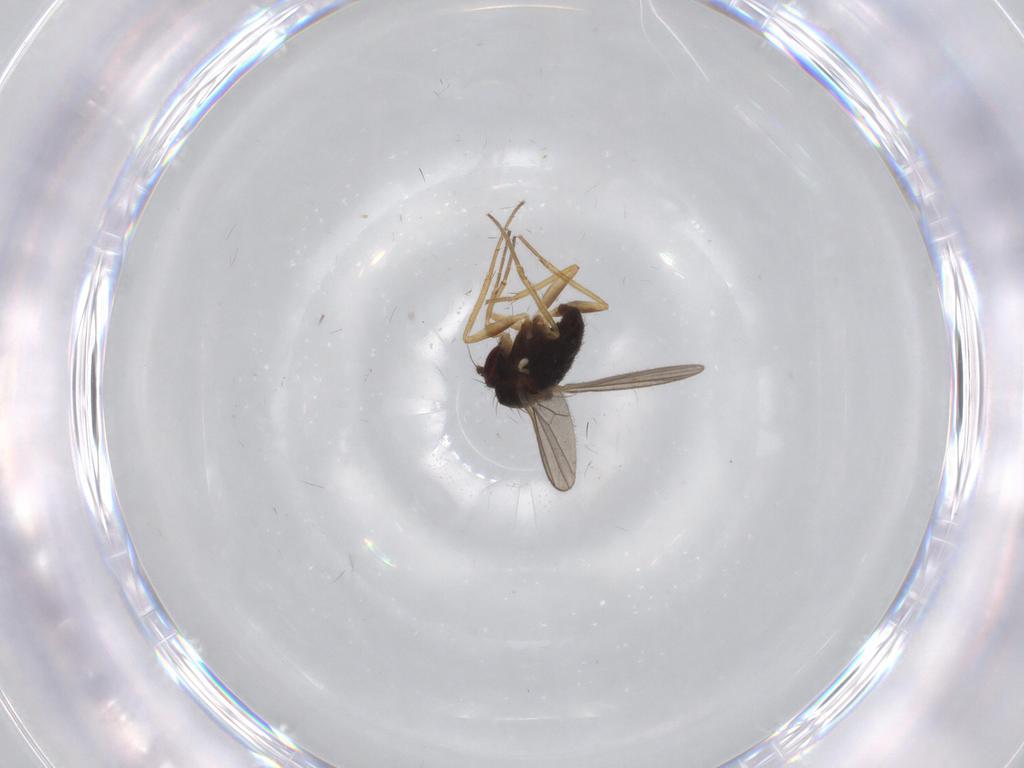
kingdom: Animalia
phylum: Arthropoda
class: Insecta
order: Diptera
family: Dolichopodidae
